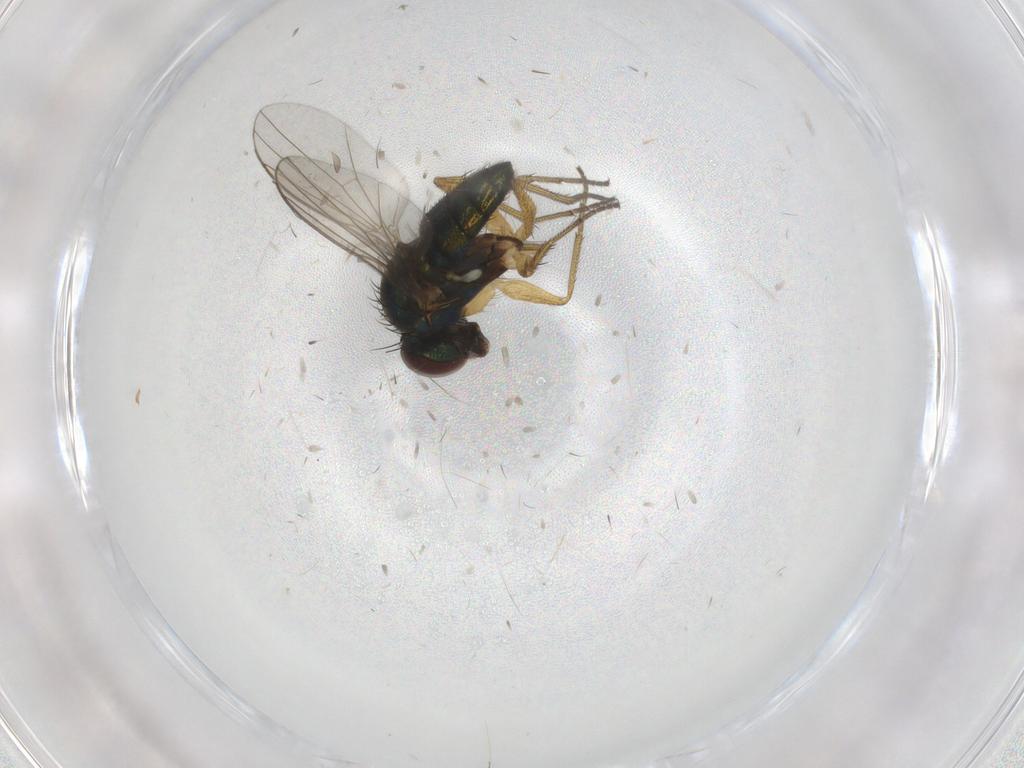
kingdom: Animalia
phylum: Arthropoda
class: Insecta
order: Diptera
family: Dolichopodidae
